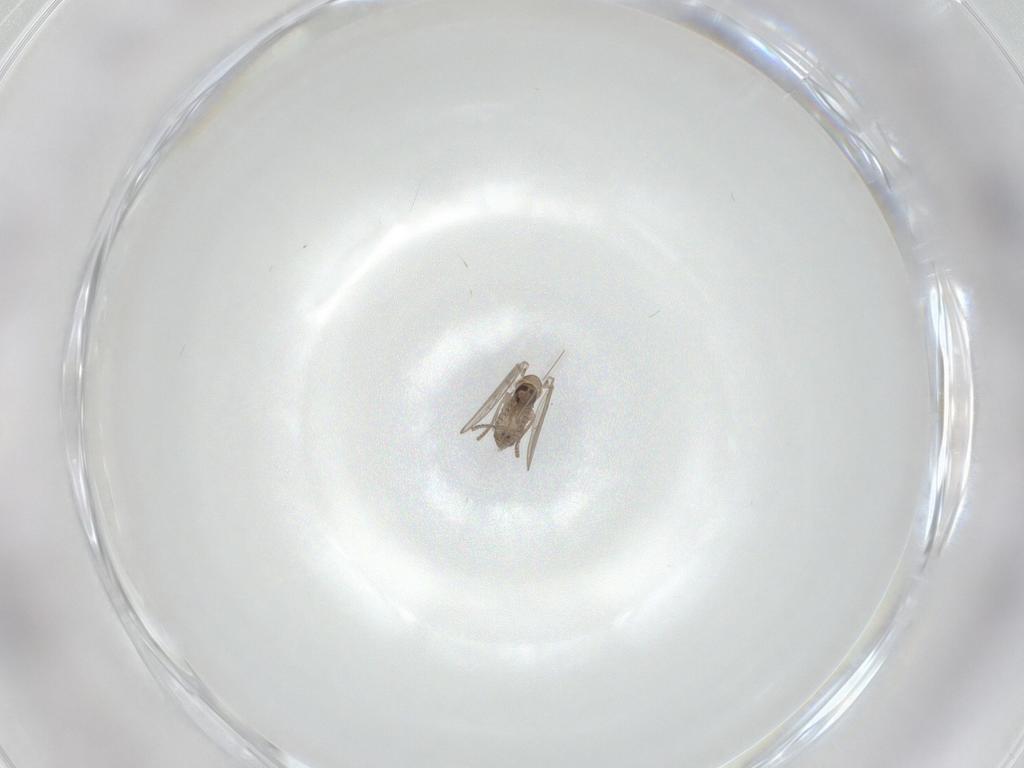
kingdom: Animalia
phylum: Arthropoda
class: Insecta
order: Diptera
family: Psychodidae
